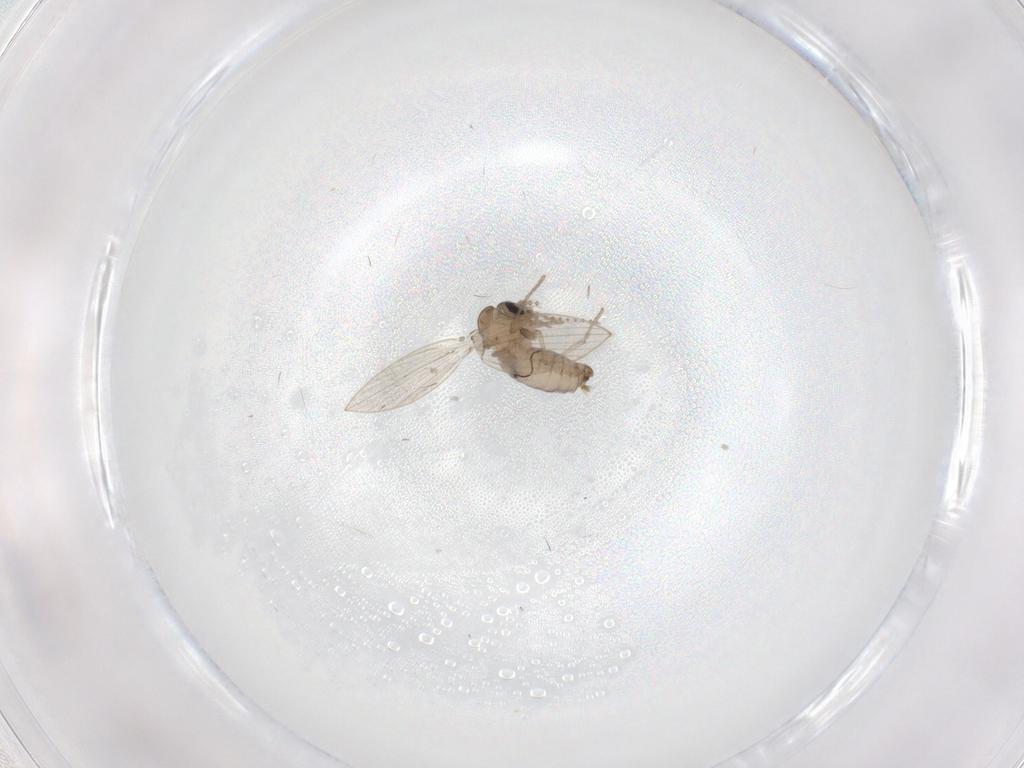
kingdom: Animalia
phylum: Arthropoda
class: Insecta
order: Diptera
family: Psychodidae
